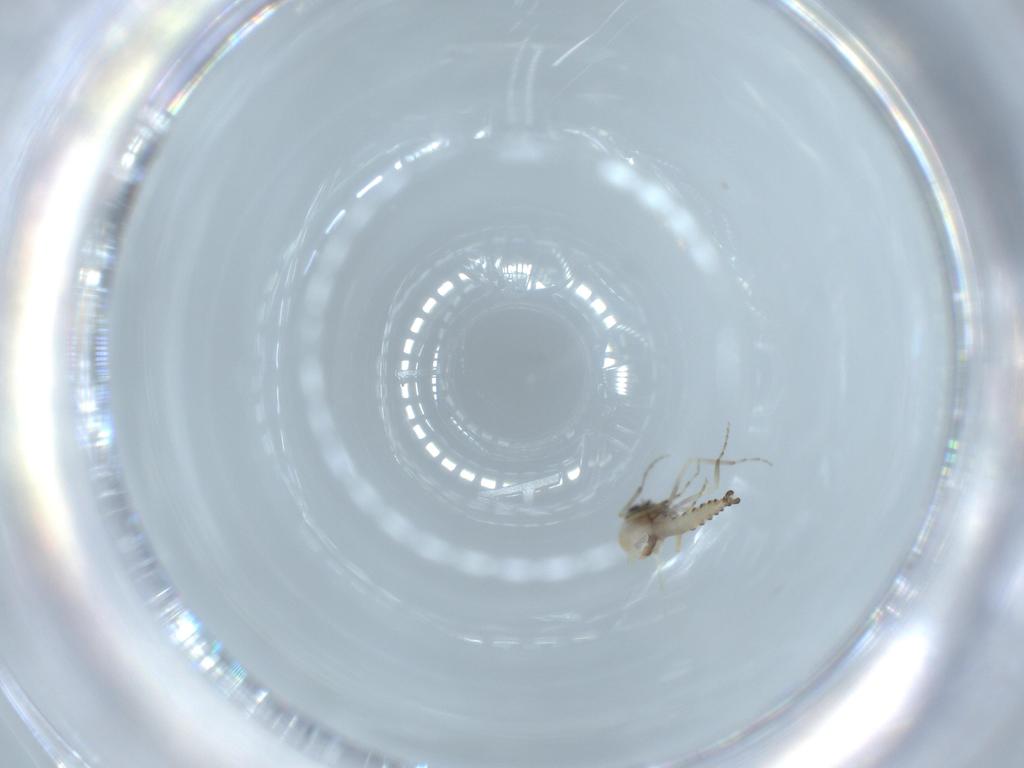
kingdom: Animalia
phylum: Arthropoda
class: Insecta
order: Diptera
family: Ceratopogonidae
